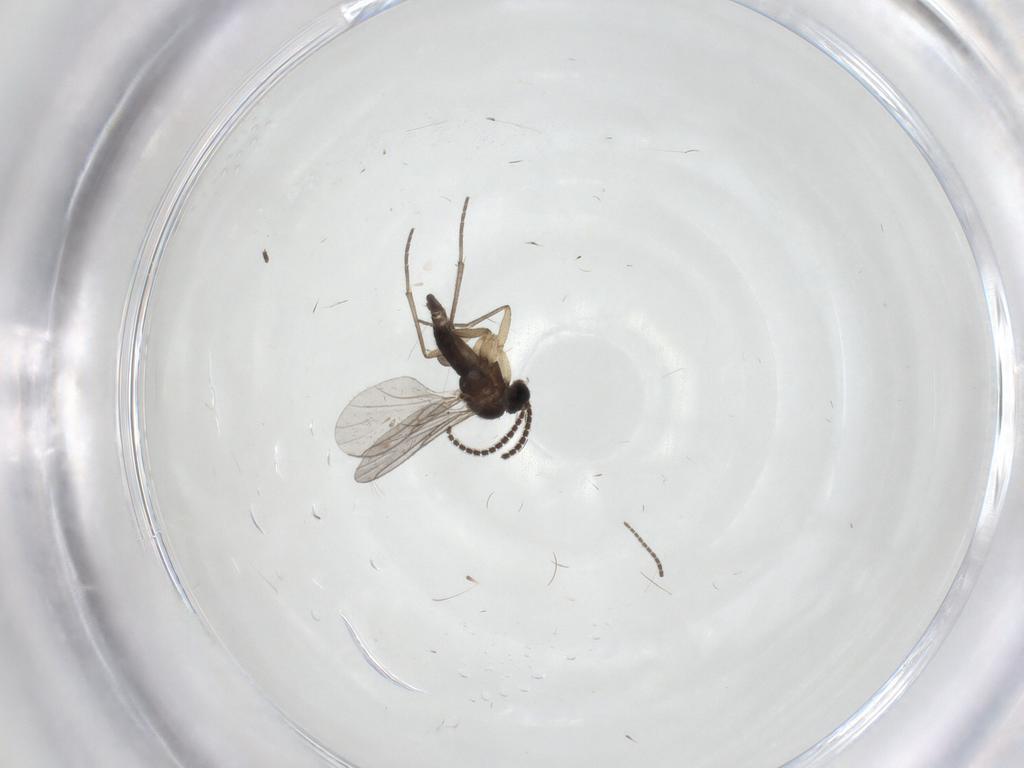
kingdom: Animalia
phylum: Arthropoda
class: Insecta
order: Diptera
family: Sciaridae
